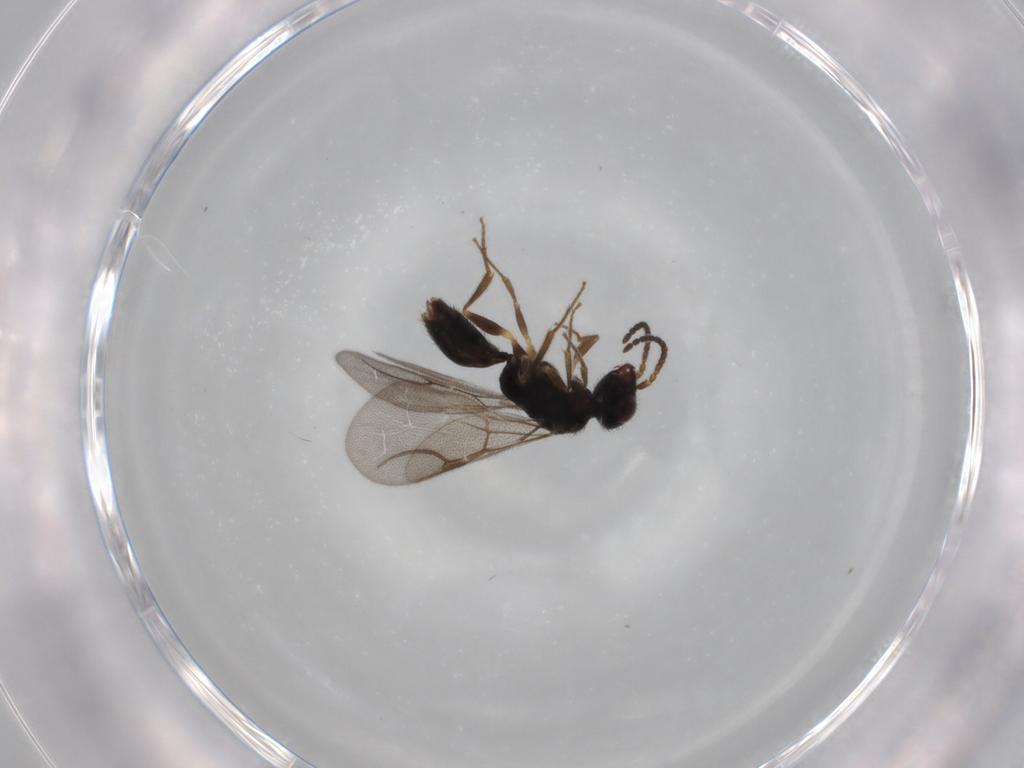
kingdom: Animalia
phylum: Arthropoda
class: Insecta
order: Hymenoptera
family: Bethylidae
